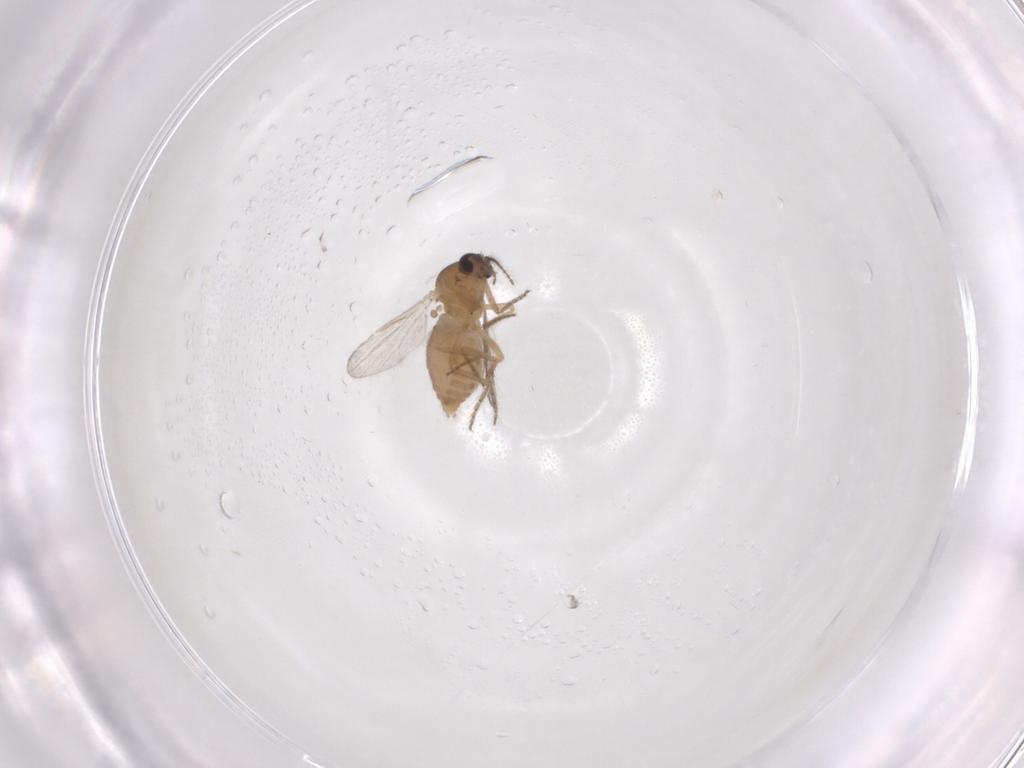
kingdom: Animalia
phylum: Arthropoda
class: Insecta
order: Diptera
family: Ceratopogonidae
